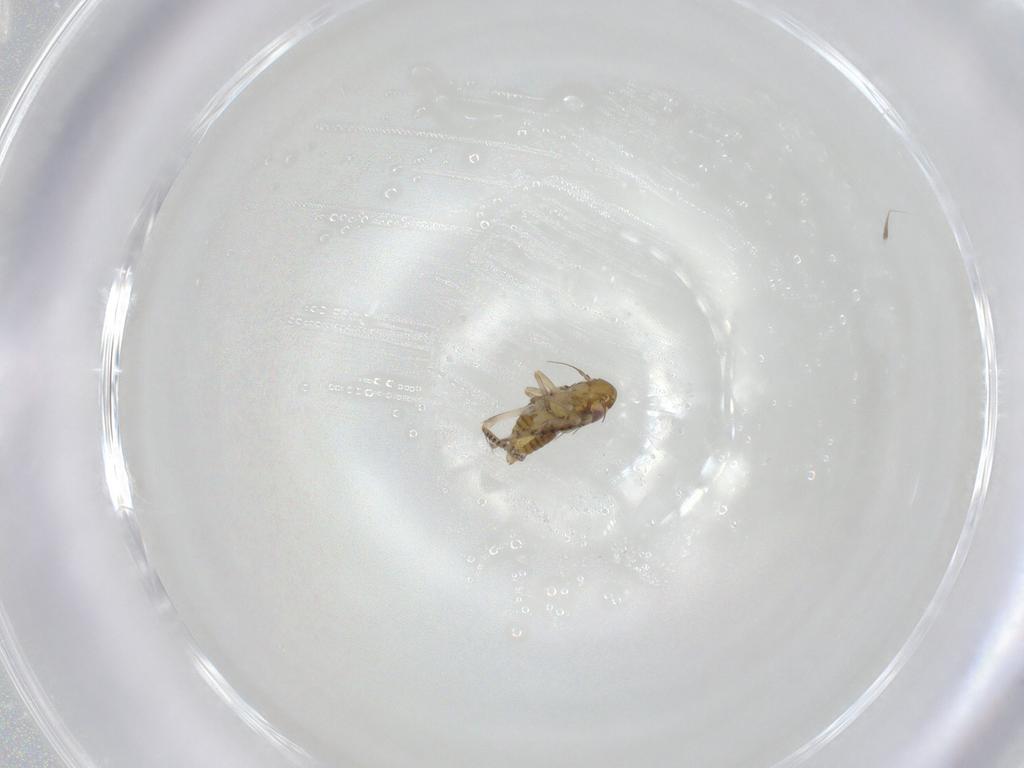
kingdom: Animalia
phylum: Arthropoda
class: Insecta
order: Hemiptera
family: Cicadellidae
